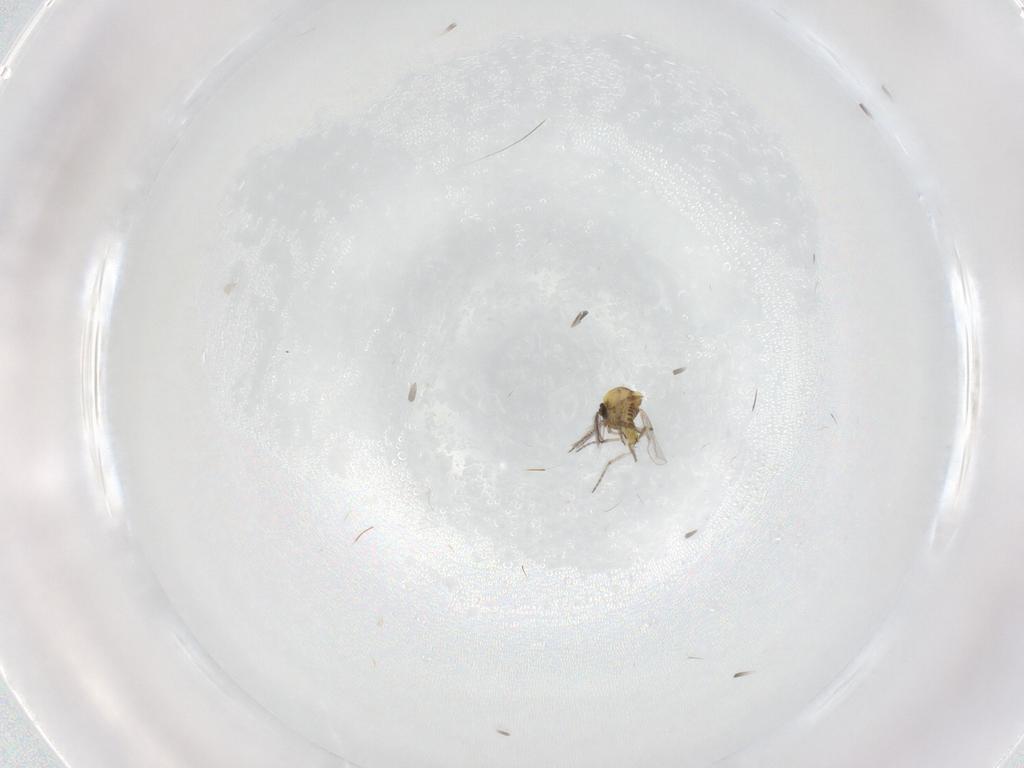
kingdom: Animalia
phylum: Arthropoda
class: Insecta
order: Diptera
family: Ceratopogonidae
